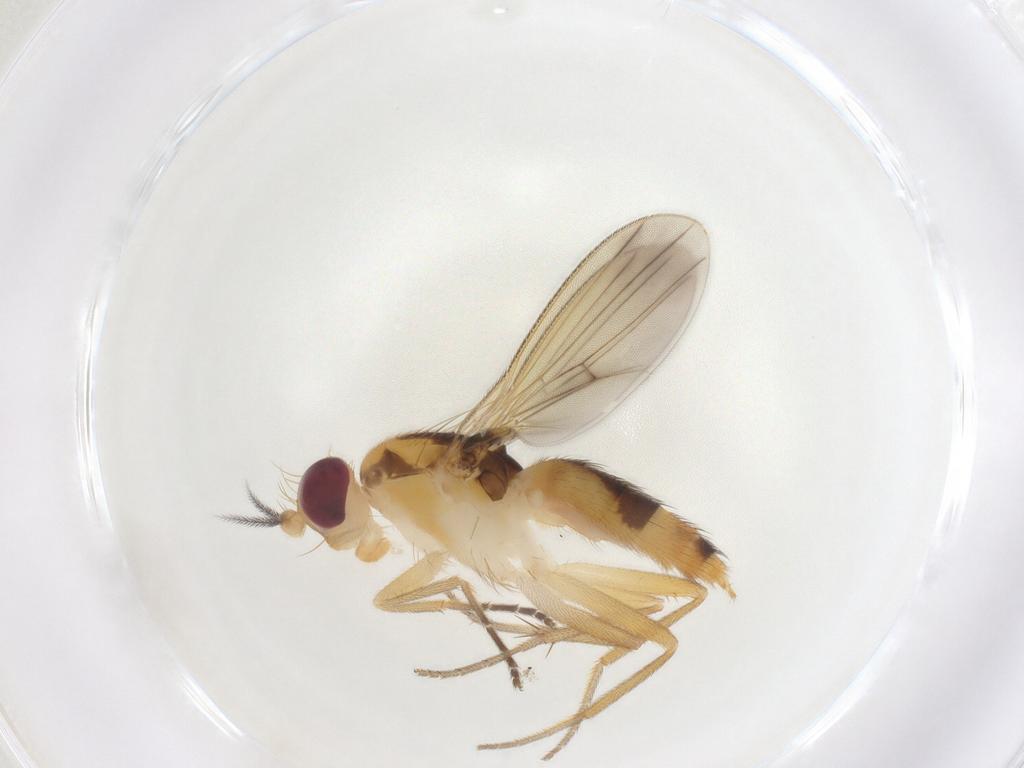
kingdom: Animalia
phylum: Arthropoda
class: Insecta
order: Diptera
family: Clusiidae
